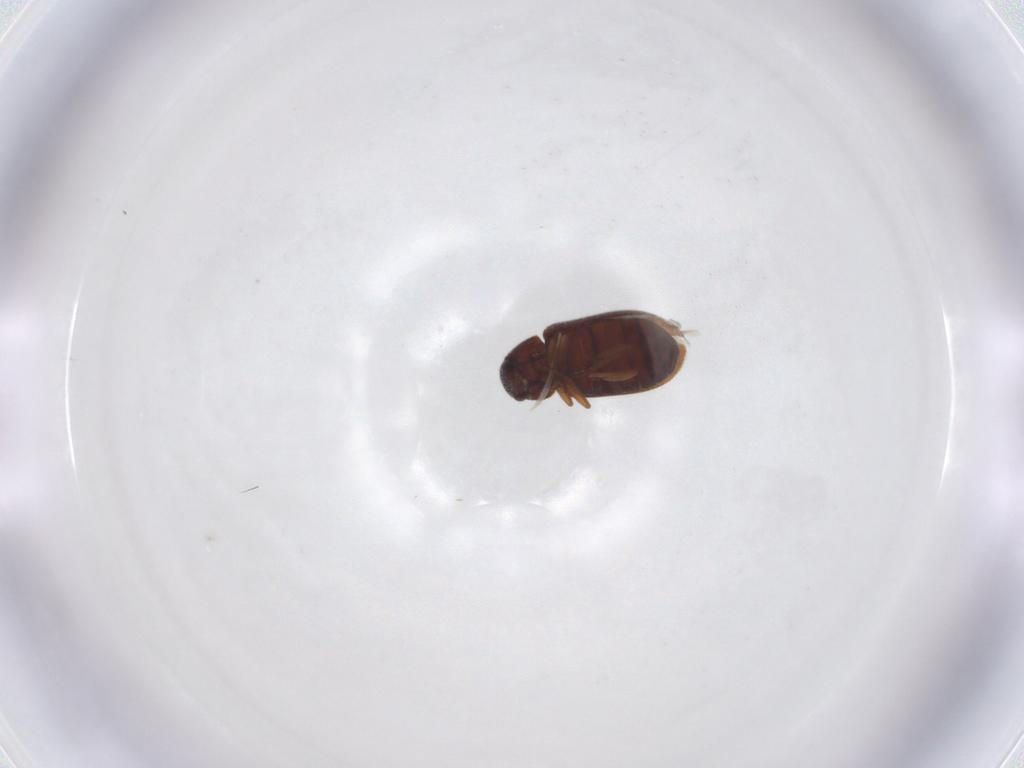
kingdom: Animalia
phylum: Arthropoda
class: Insecta
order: Coleoptera
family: Rhadalidae
